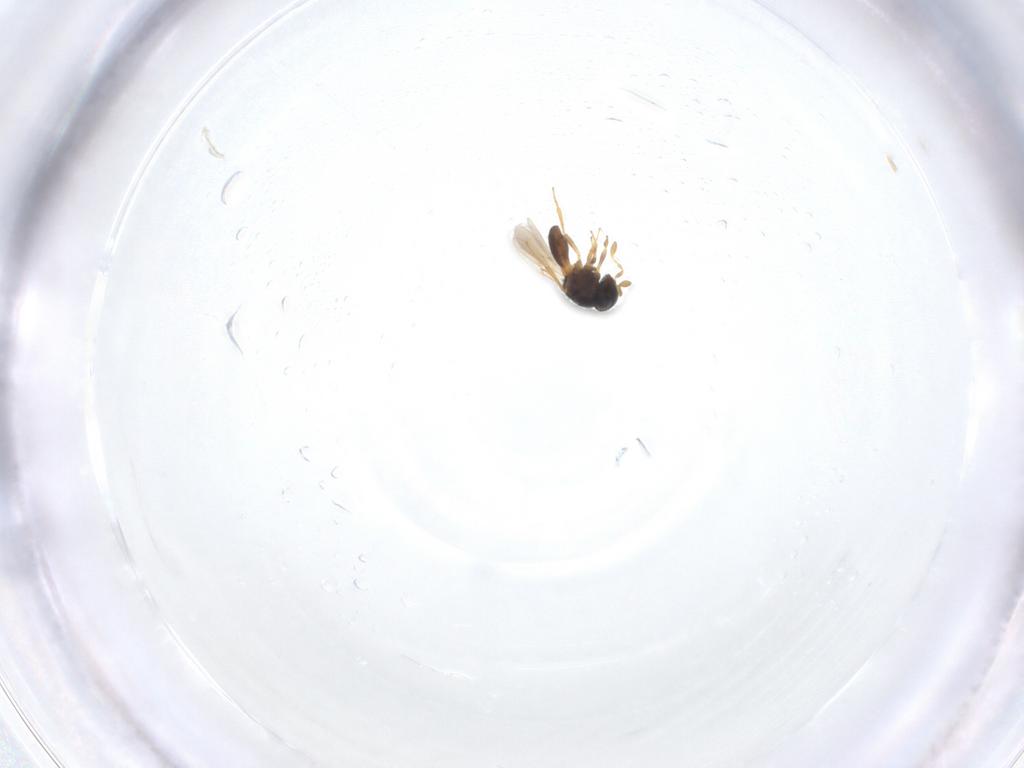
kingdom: Animalia
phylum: Arthropoda
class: Insecta
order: Hymenoptera
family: Scelionidae
